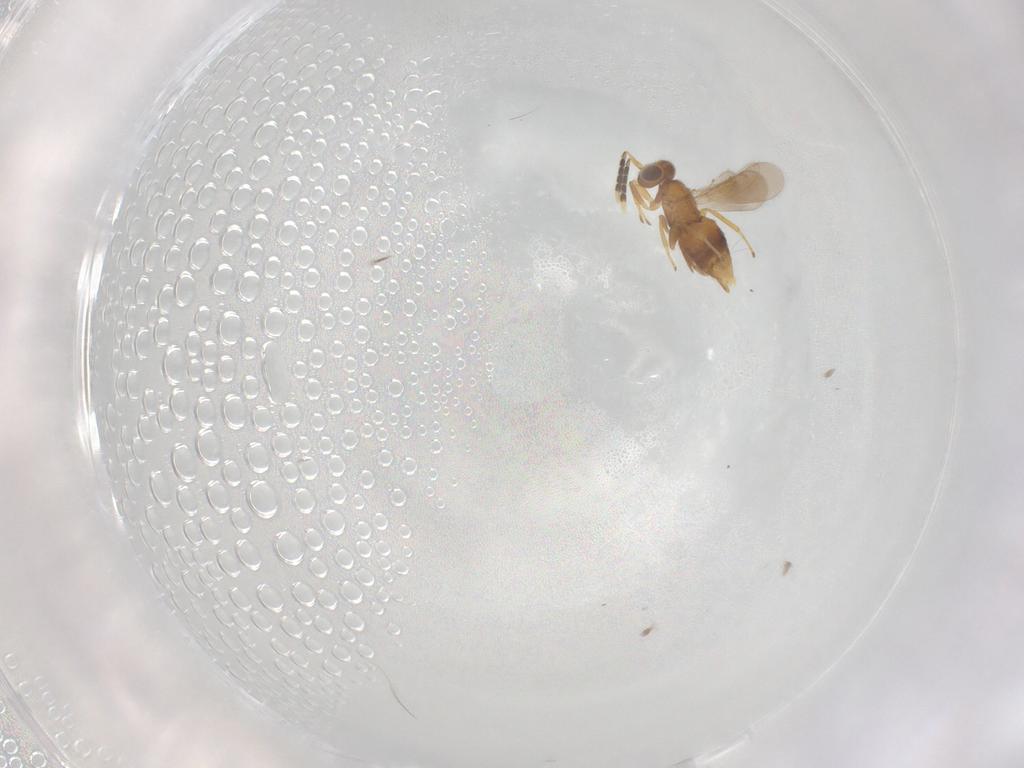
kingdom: Animalia
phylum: Arthropoda
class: Insecta
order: Hymenoptera
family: Aphelinidae
